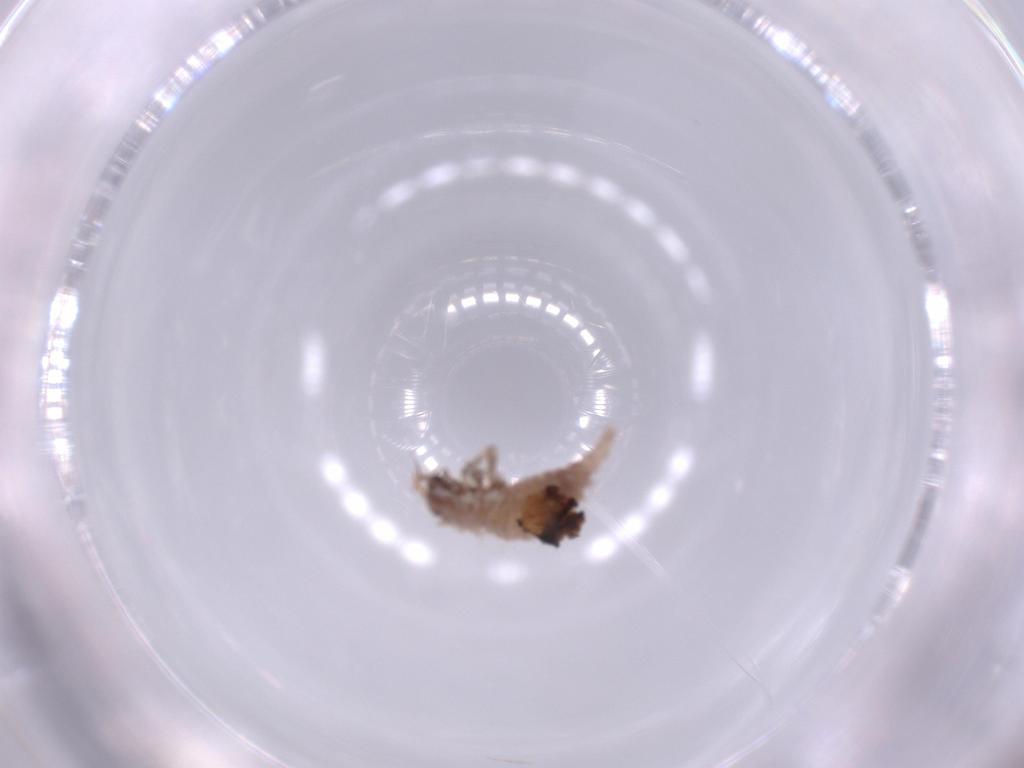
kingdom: Animalia
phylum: Arthropoda
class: Insecta
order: Neuroptera
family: Chrysopidae
